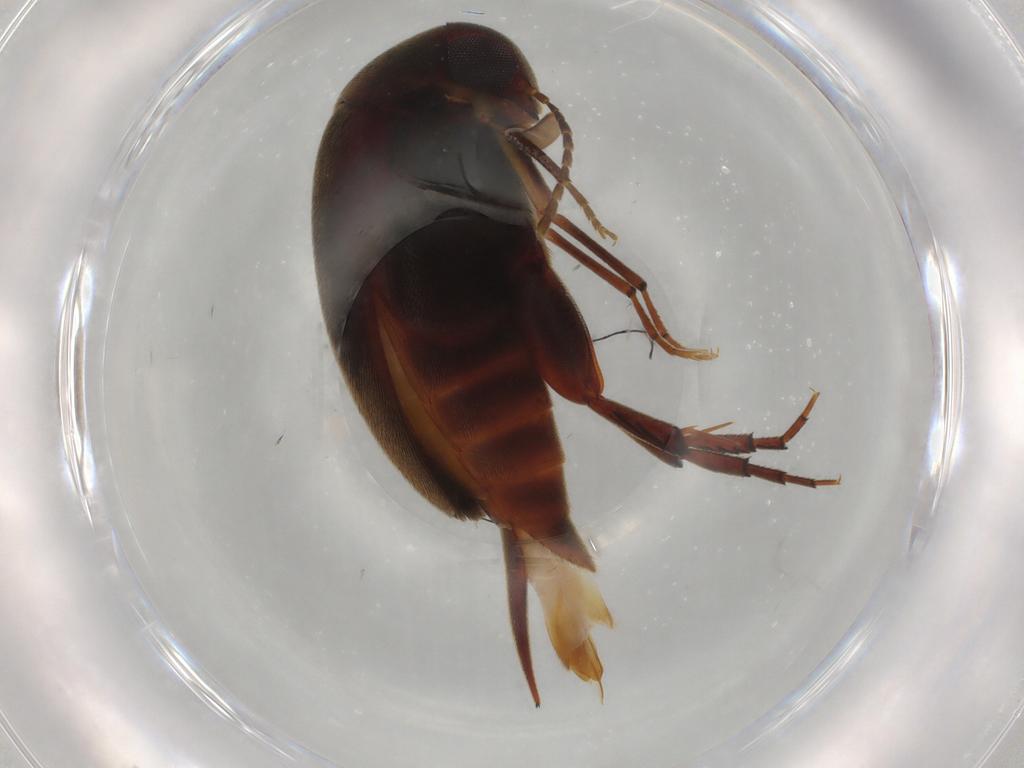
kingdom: Animalia
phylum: Arthropoda
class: Insecta
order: Coleoptera
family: Mordellidae
